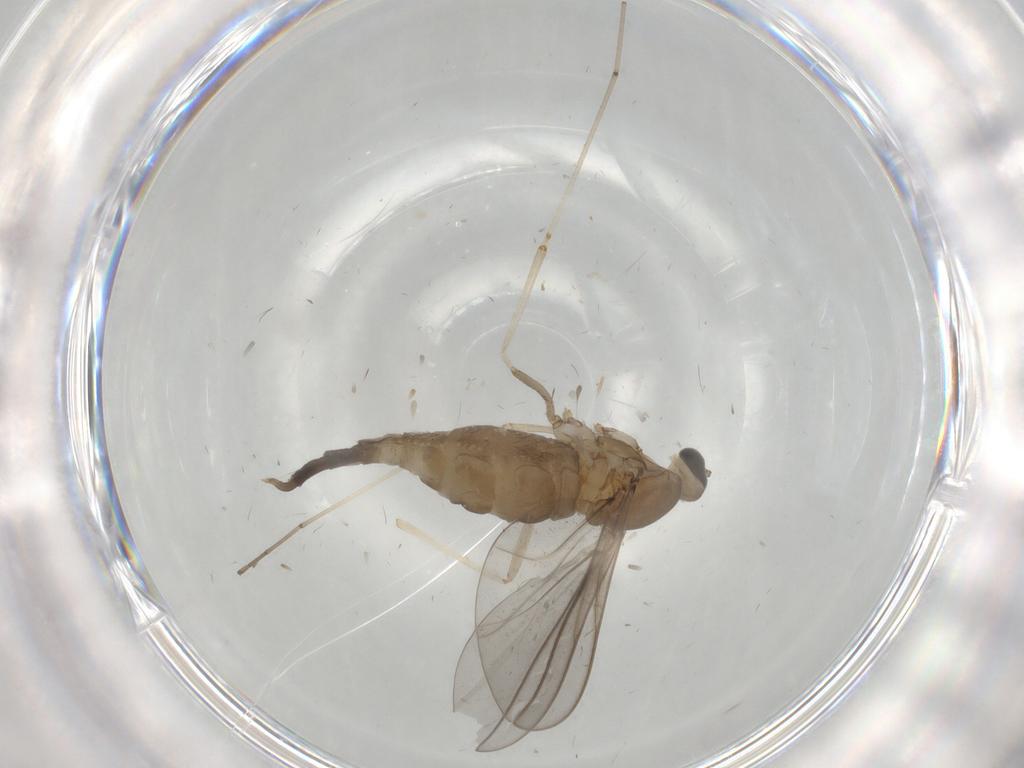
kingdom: Animalia
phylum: Arthropoda
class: Insecta
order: Diptera
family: Cecidomyiidae
